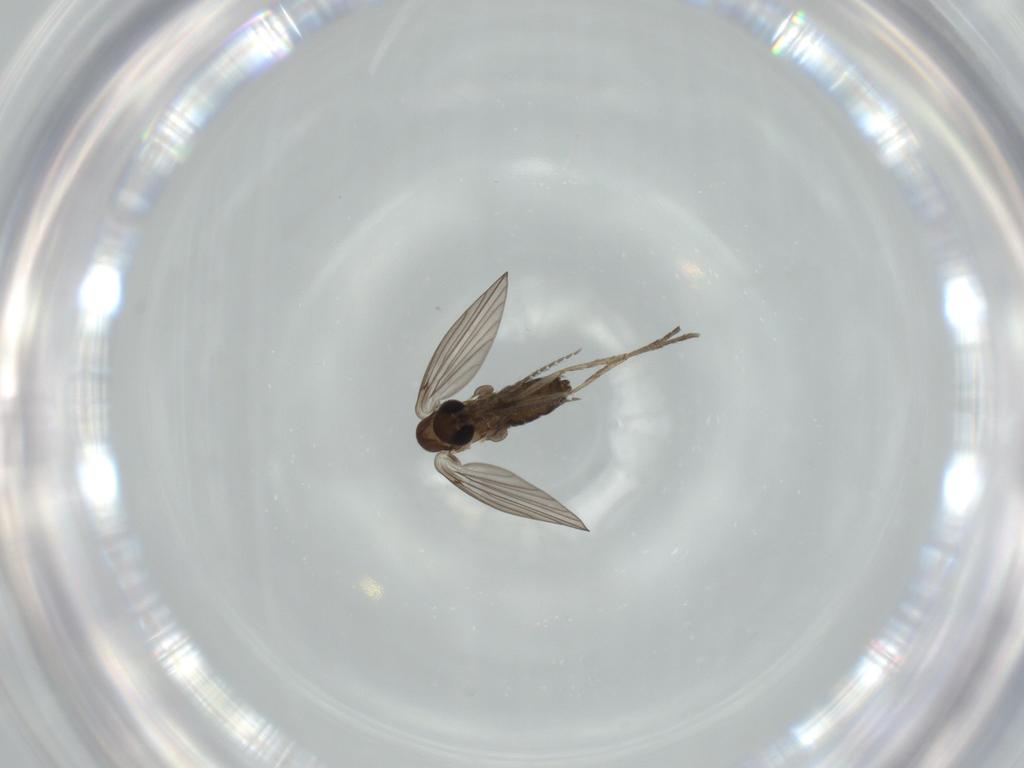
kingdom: Animalia
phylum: Arthropoda
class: Insecta
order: Diptera
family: Psychodidae
